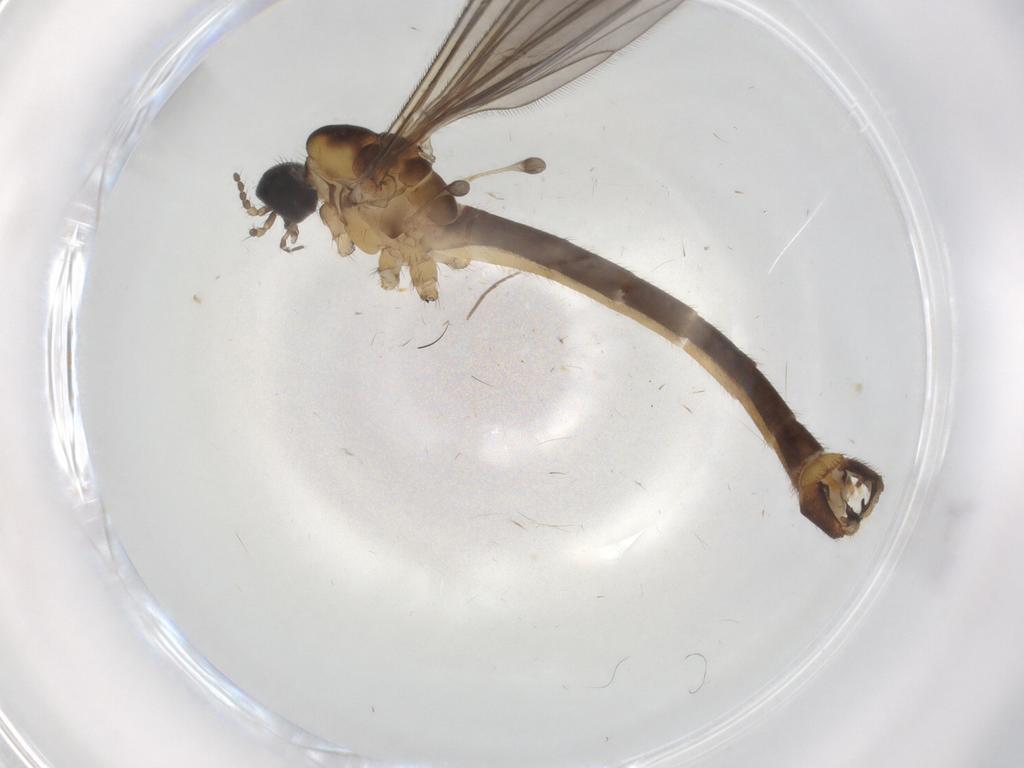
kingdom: Animalia
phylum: Arthropoda
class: Insecta
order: Diptera
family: Limoniidae
